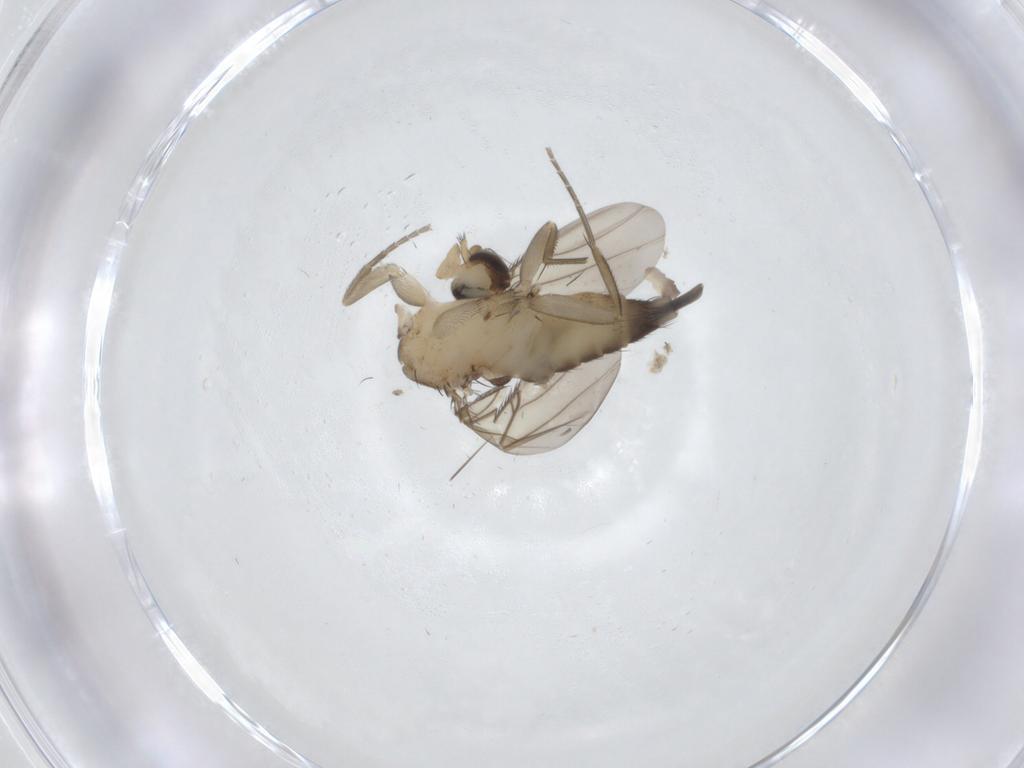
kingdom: Animalia
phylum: Arthropoda
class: Insecta
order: Diptera
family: Phoridae
